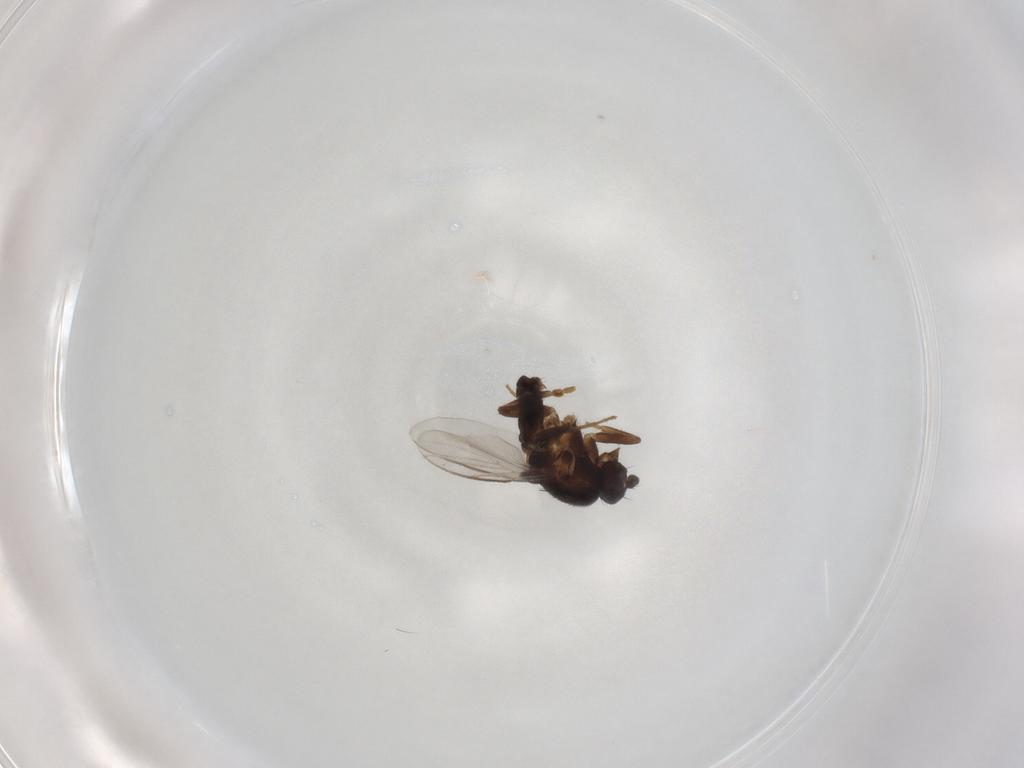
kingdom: Animalia
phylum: Arthropoda
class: Insecta
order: Diptera
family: Sphaeroceridae
